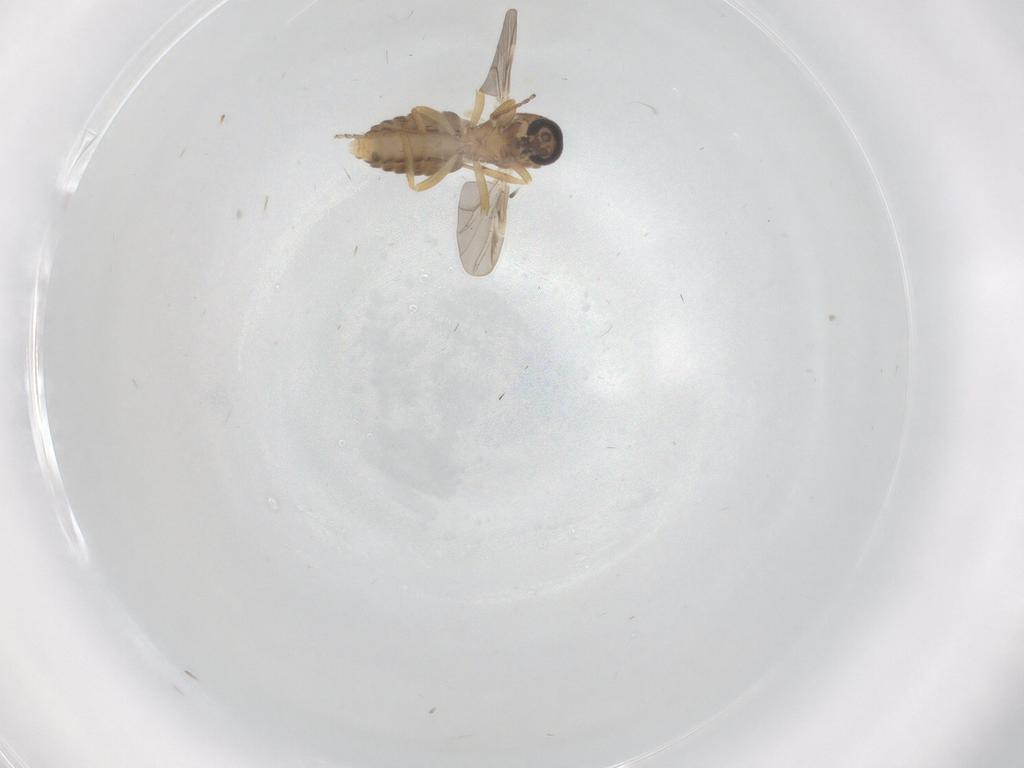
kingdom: Animalia
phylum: Arthropoda
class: Insecta
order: Diptera
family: Ceratopogonidae
